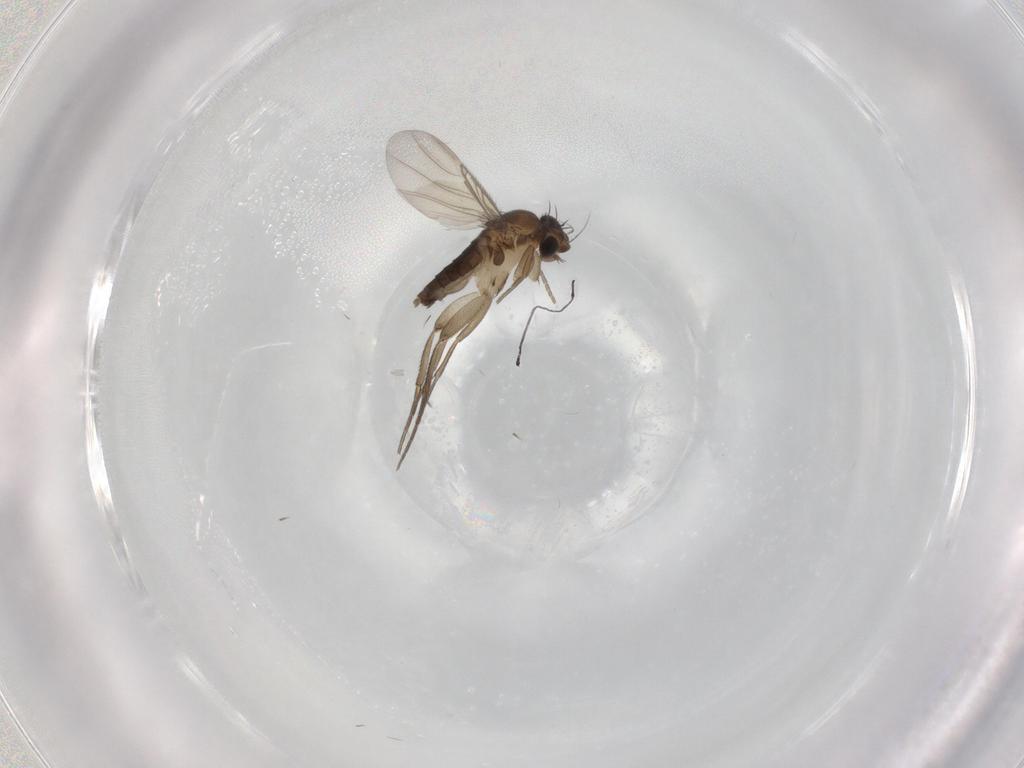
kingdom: Animalia
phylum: Arthropoda
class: Insecta
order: Diptera
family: Phoridae
